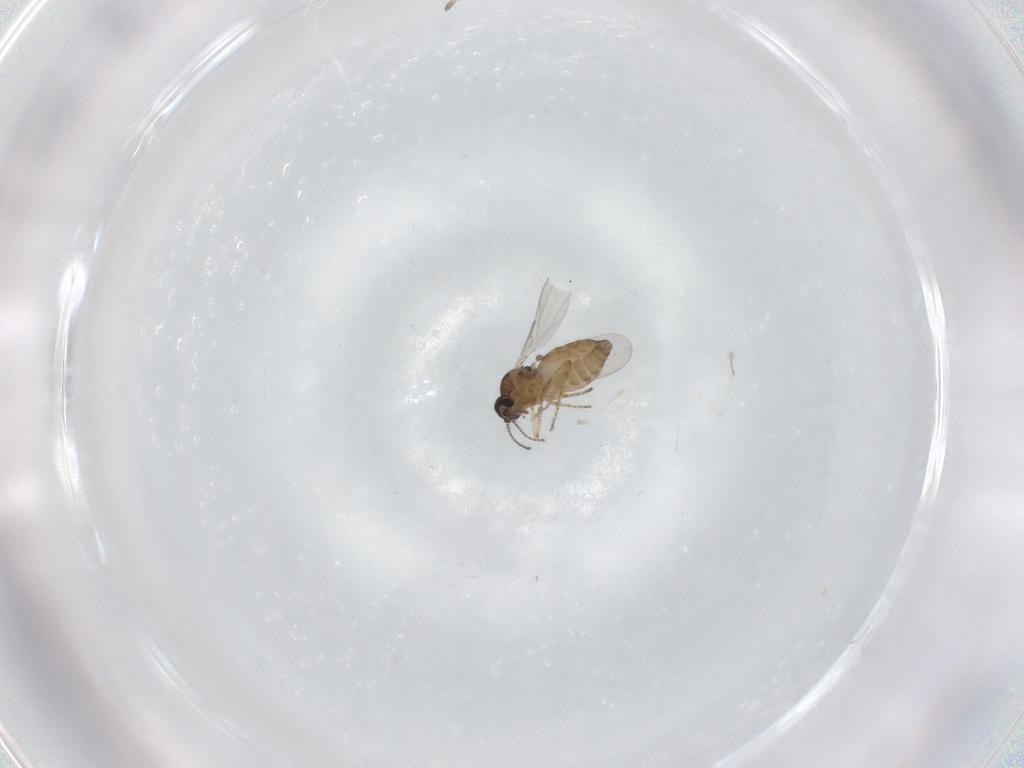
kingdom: Animalia
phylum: Arthropoda
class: Insecta
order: Diptera
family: Cecidomyiidae
